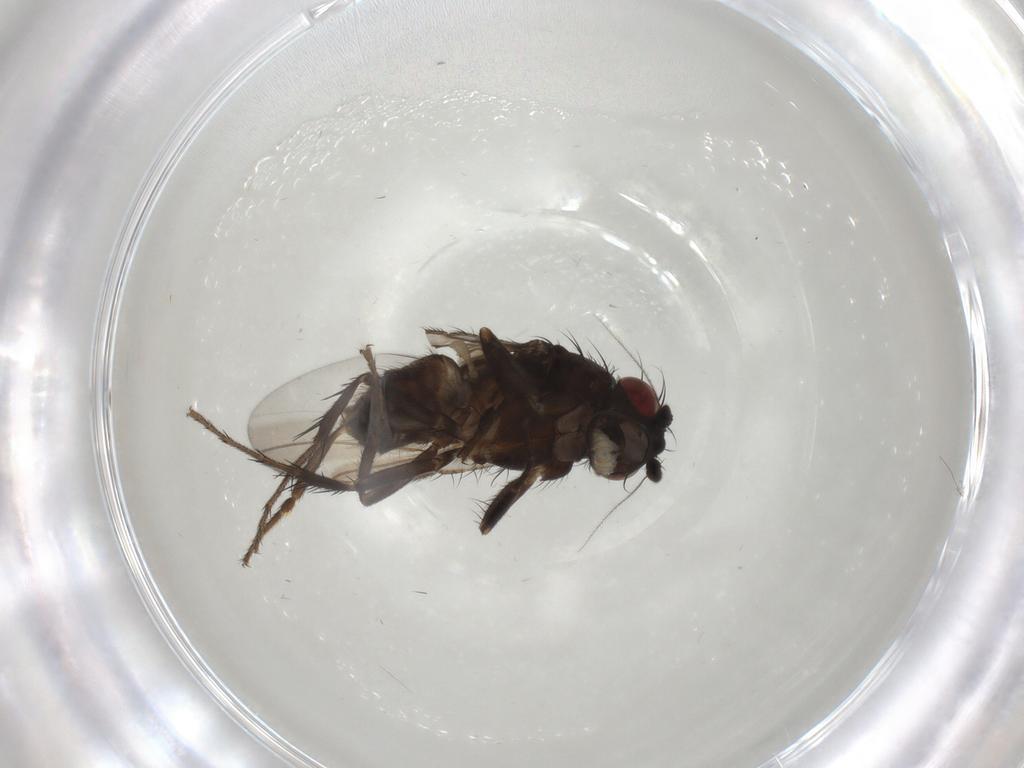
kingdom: Animalia
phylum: Arthropoda
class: Insecta
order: Diptera
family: Sphaeroceridae
